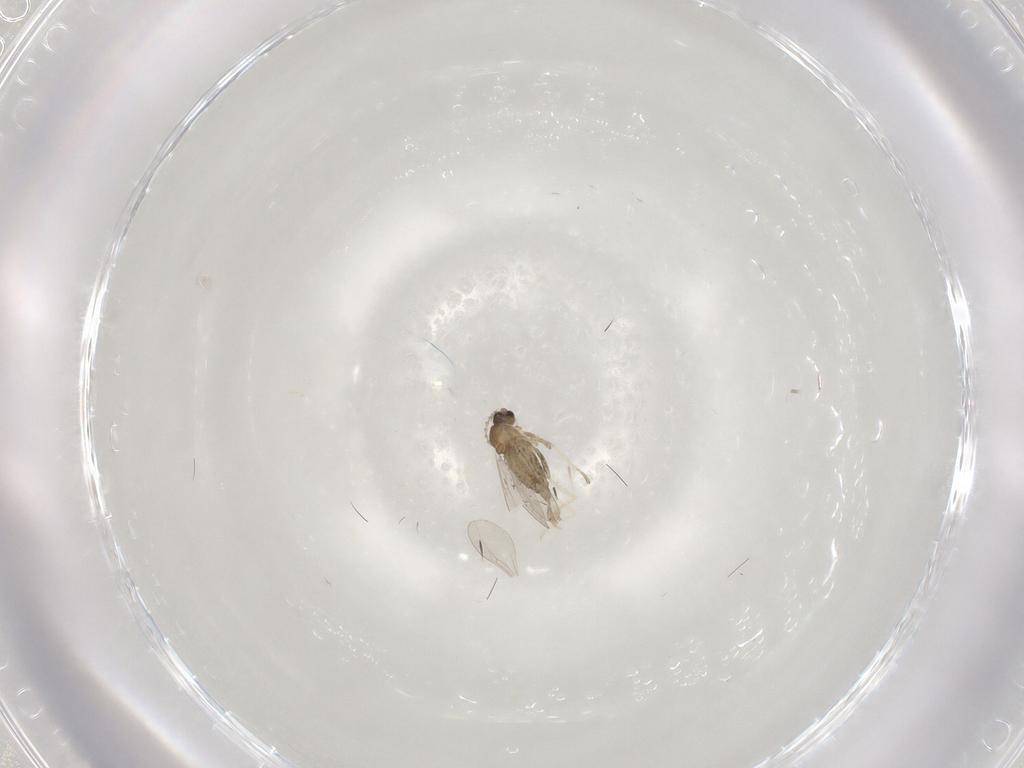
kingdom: Animalia
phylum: Arthropoda
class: Insecta
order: Diptera
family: Cecidomyiidae
